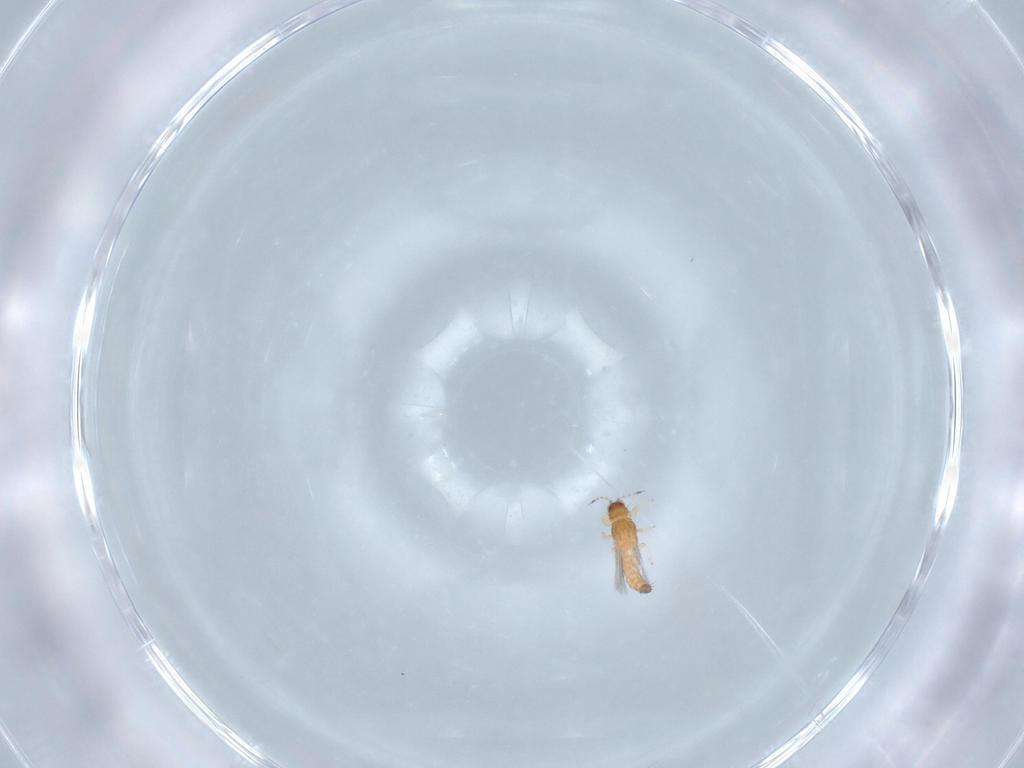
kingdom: Animalia
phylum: Arthropoda
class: Insecta
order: Thysanoptera
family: Thripidae
